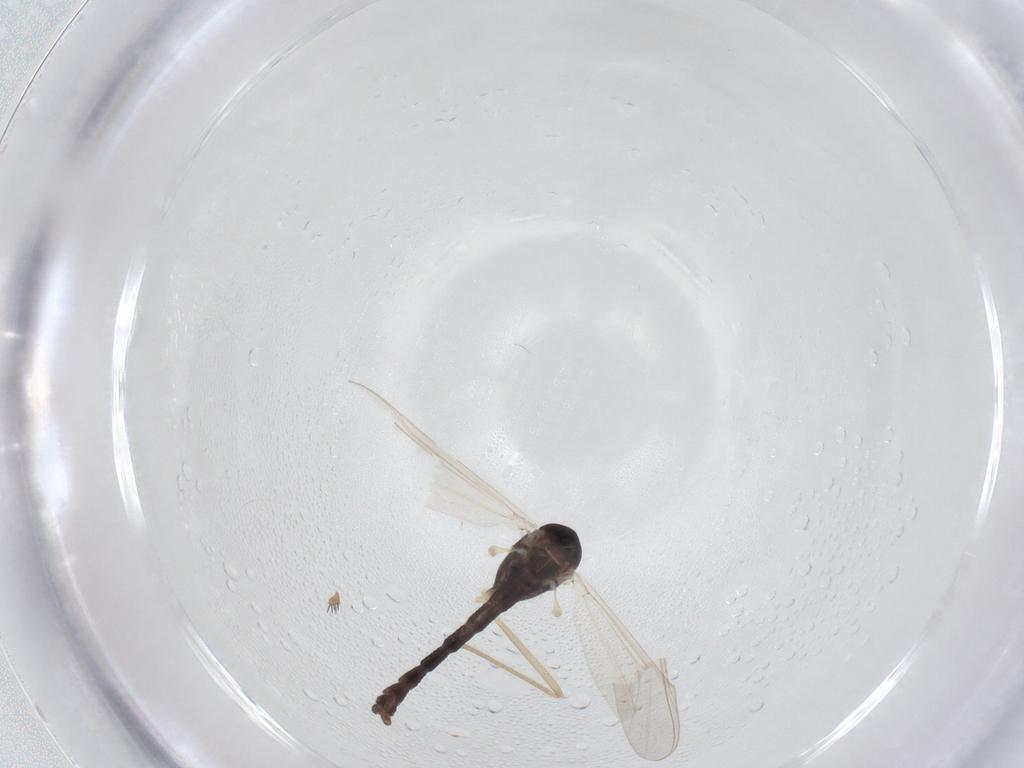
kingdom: Animalia
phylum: Arthropoda
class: Insecta
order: Diptera
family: Chironomidae
